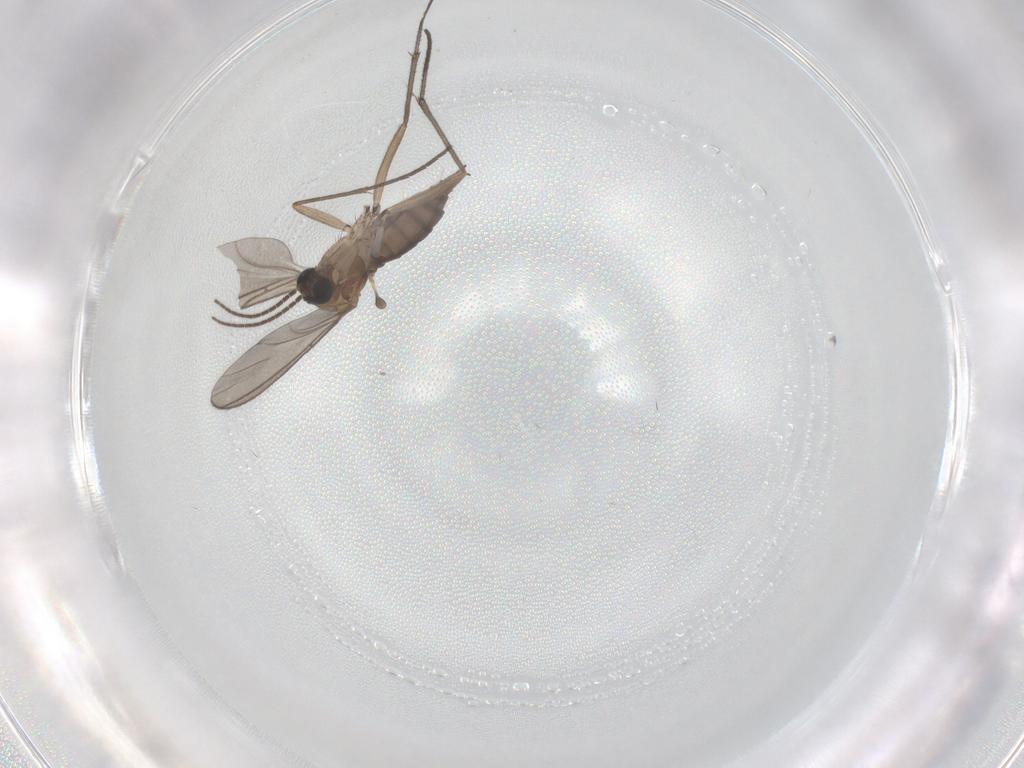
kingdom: Animalia
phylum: Arthropoda
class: Insecta
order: Diptera
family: Sciaridae
